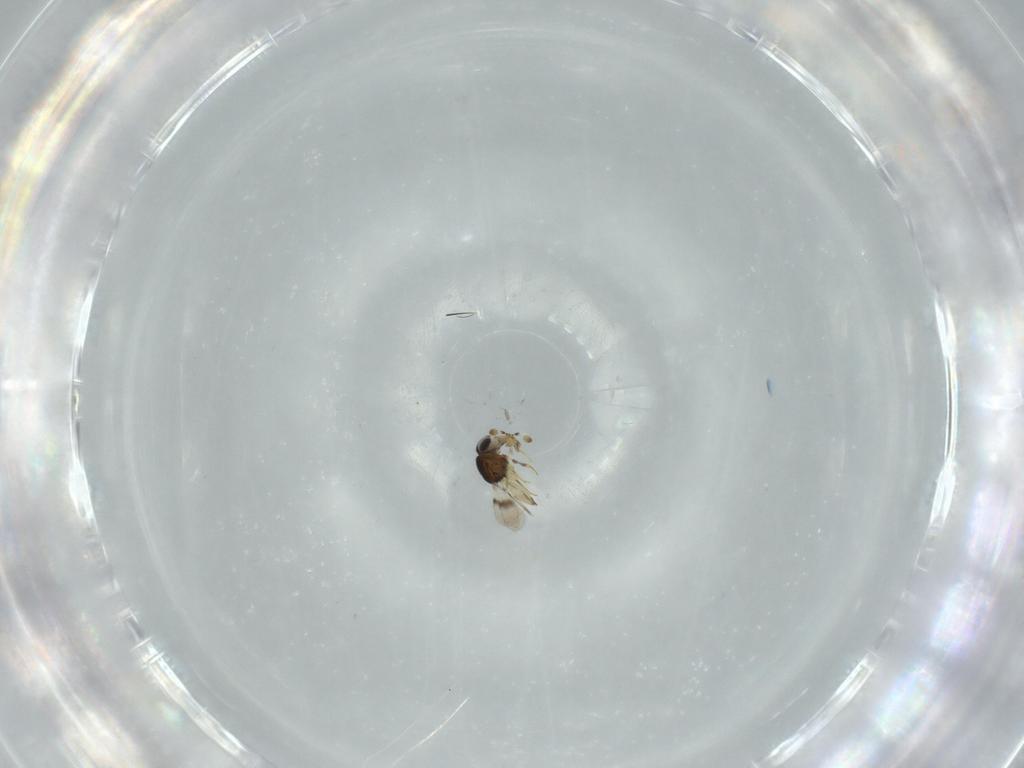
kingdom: Animalia
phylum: Arthropoda
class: Insecta
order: Hymenoptera
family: Scelionidae
